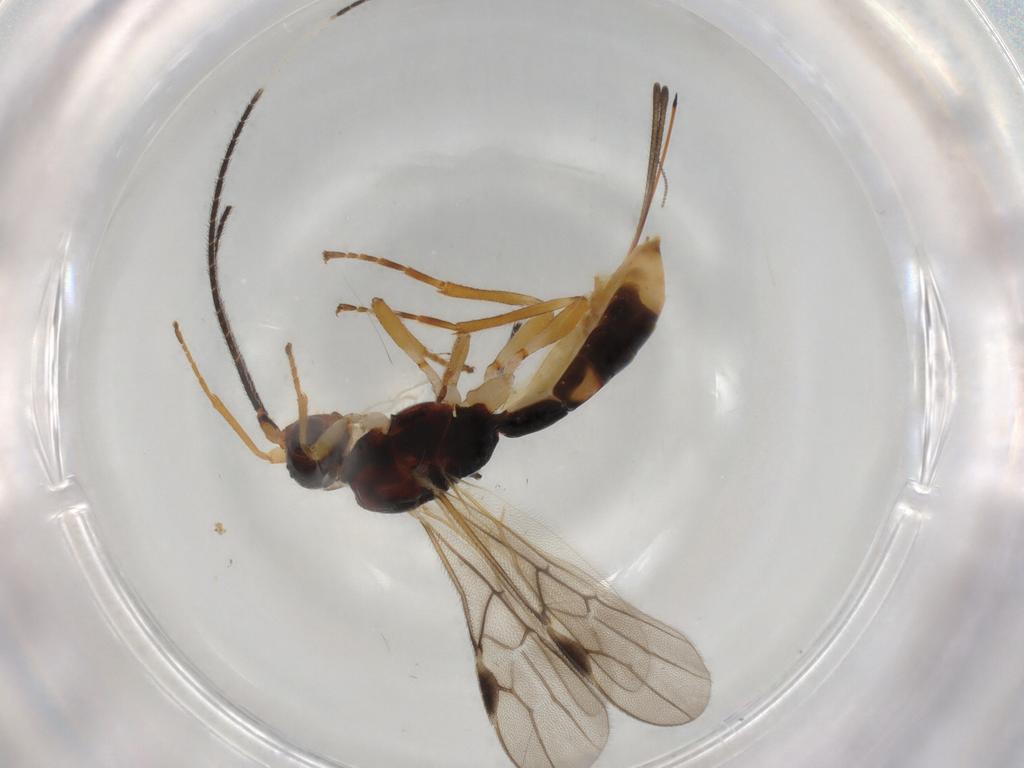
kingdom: Animalia
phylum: Arthropoda
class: Insecta
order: Hymenoptera
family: Braconidae
